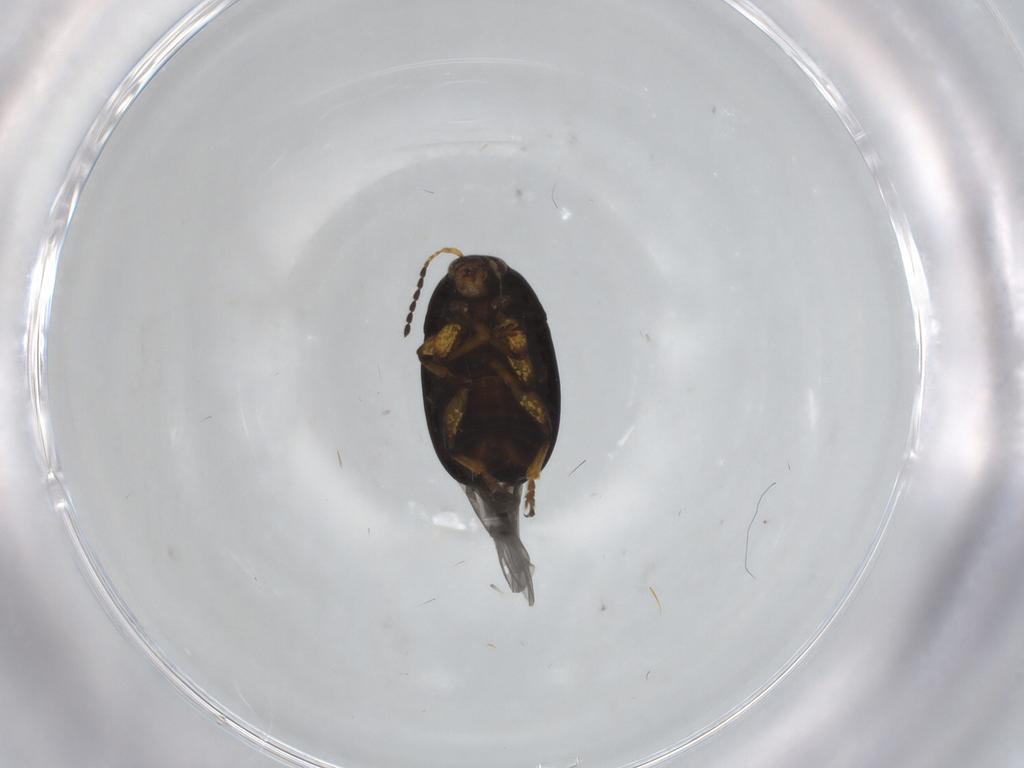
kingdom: Animalia
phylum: Arthropoda
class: Insecta
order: Coleoptera
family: Chrysomelidae
